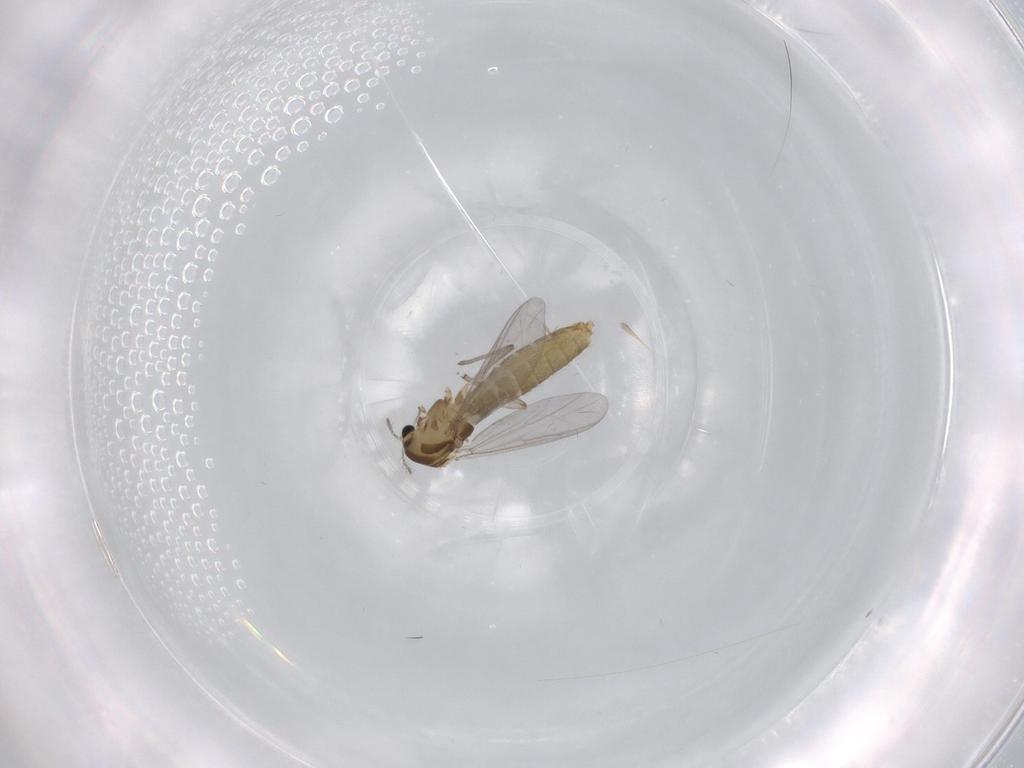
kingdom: Animalia
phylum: Arthropoda
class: Insecta
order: Diptera
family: Chironomidae
